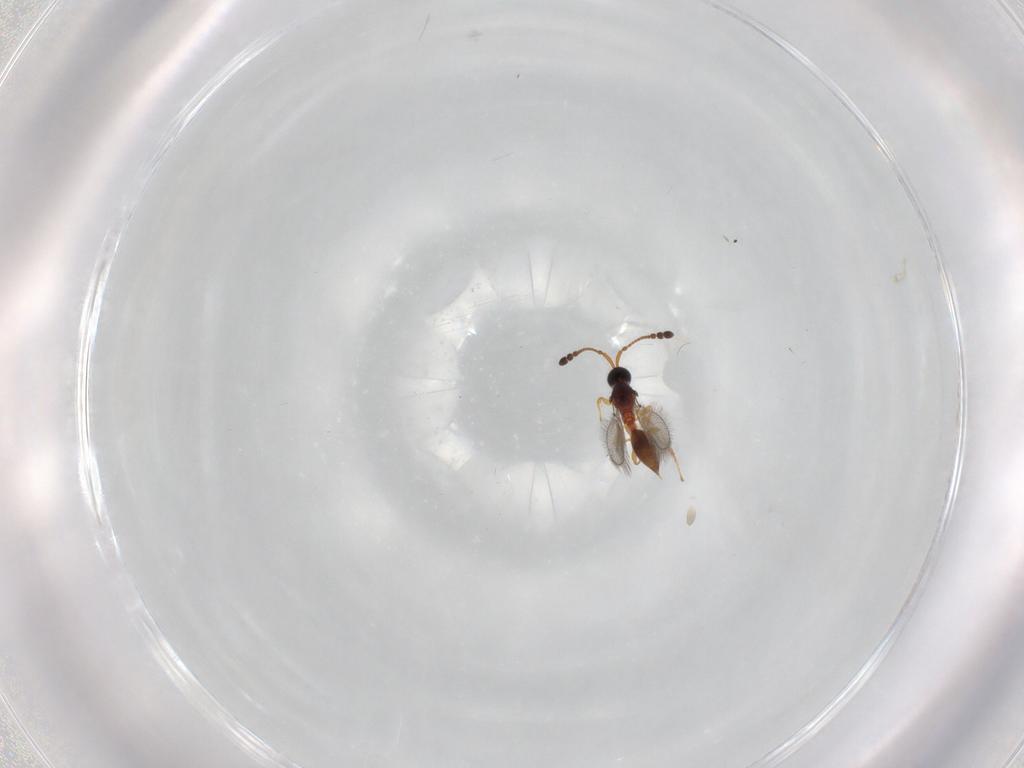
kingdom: Animalia
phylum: Arthropoda
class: Insecta
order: Hymenoptera
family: Diapriidae
